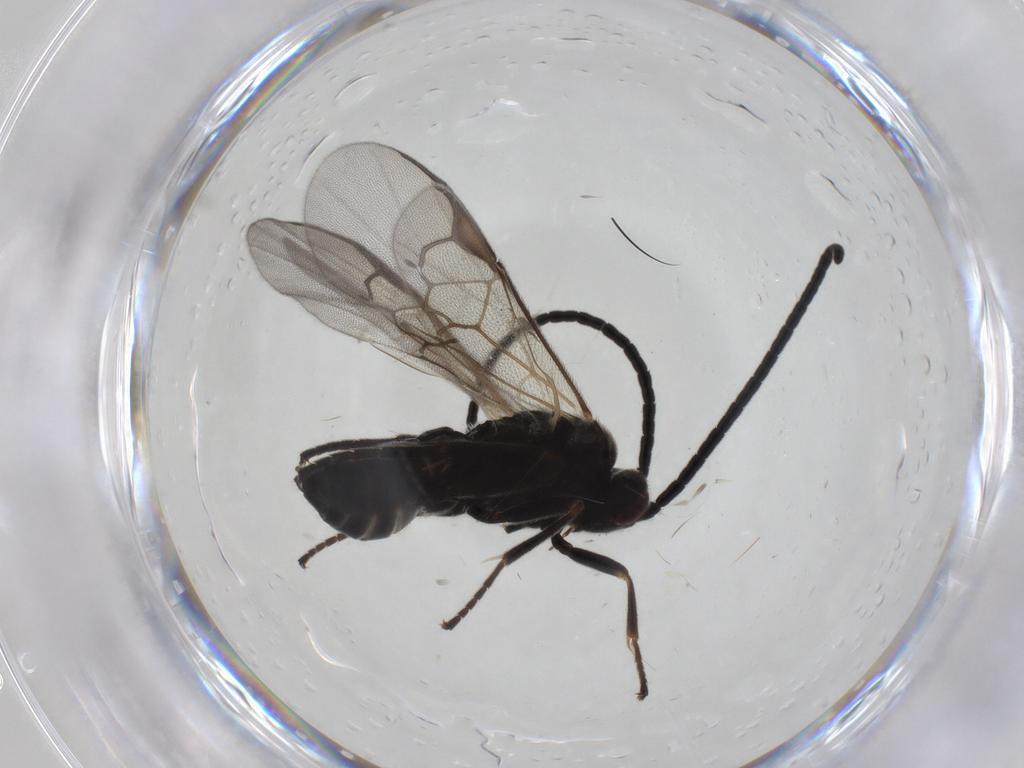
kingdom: Animalia
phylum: Arthropoda
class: Insecta
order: Hymenoptera
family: Braconidae
